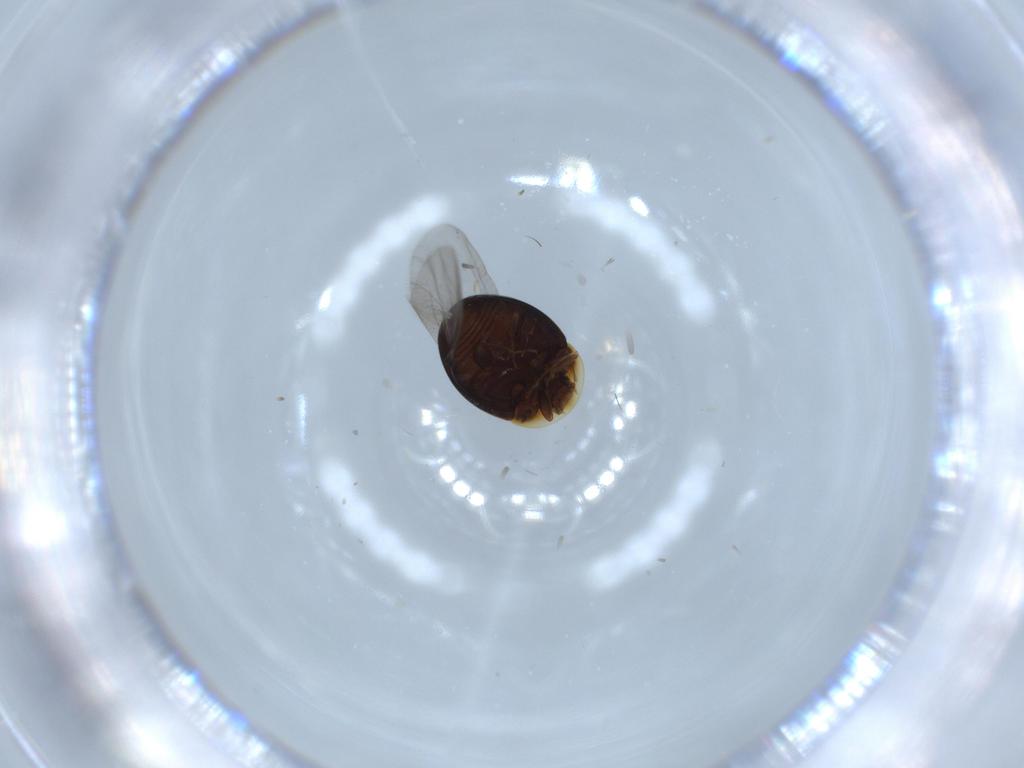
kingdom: Animalia
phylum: Arthropoda
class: Insecta
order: Coleoptera
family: Corylophidae
